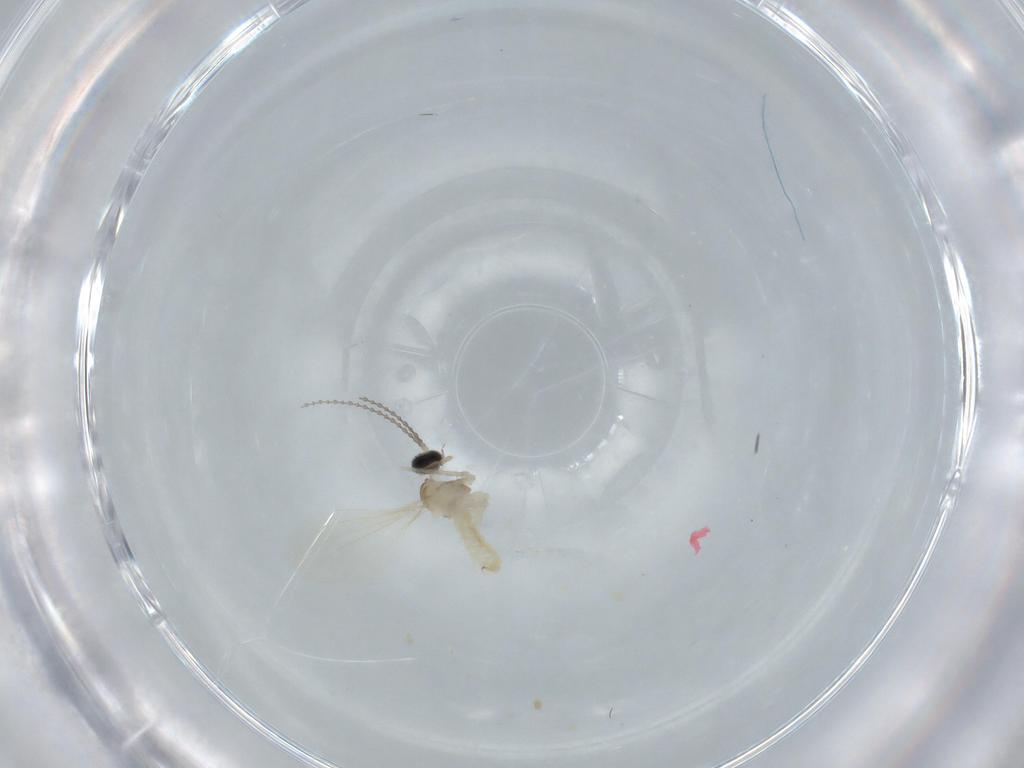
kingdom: Animalia
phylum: Arthropoda
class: Insecta
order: Diptera
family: Cecidomyiidae
